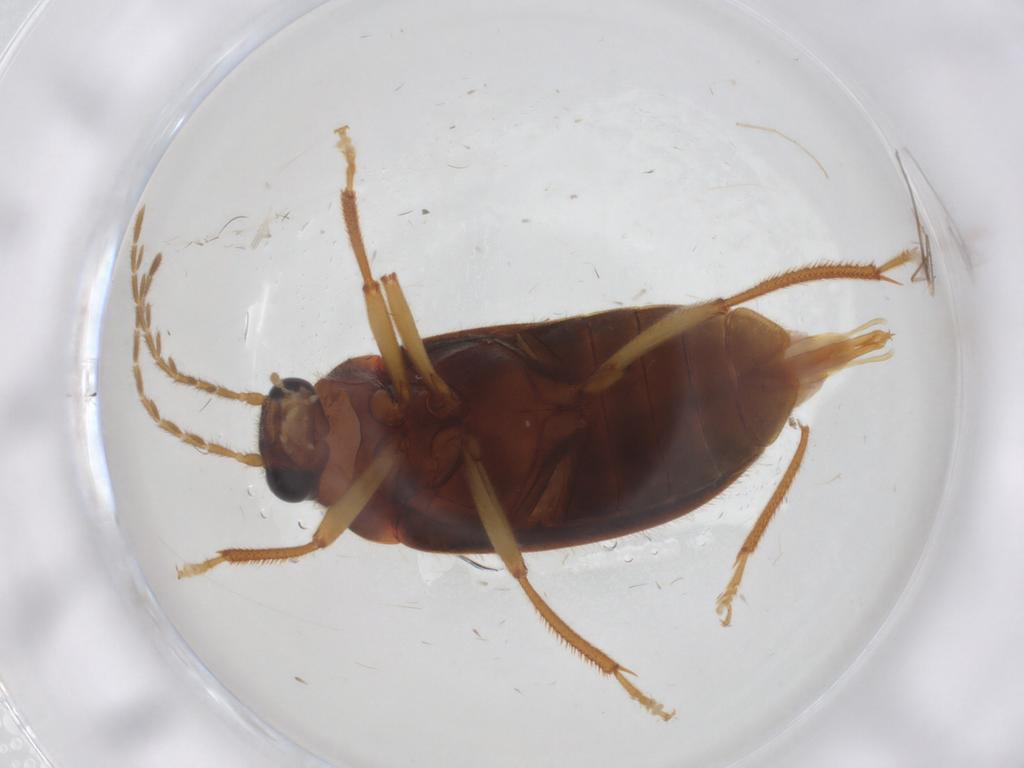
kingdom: Animalia
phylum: Arthropoda
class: Insecta
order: Coleoptera
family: Ptilodactylidae
